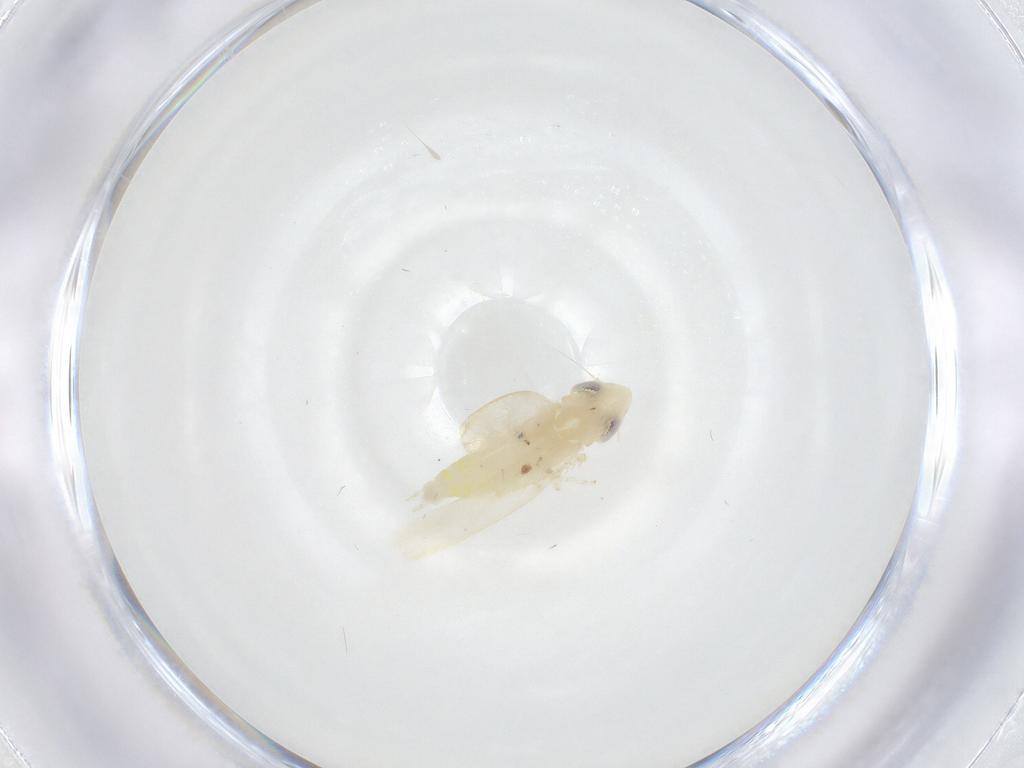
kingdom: Animalia
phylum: Arthropoda
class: Insecta
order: Hemiptera
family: Cicadellidae
